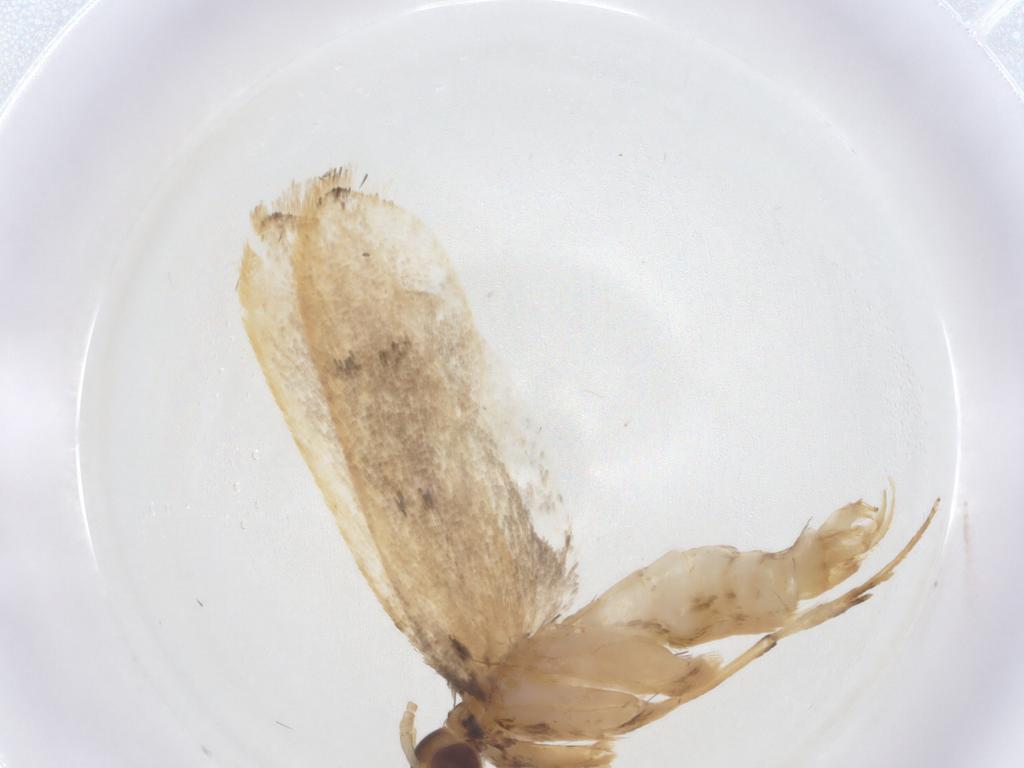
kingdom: Animalia
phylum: Arthropoda
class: Insecta
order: Lepidoptera
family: Lecithoceridae
